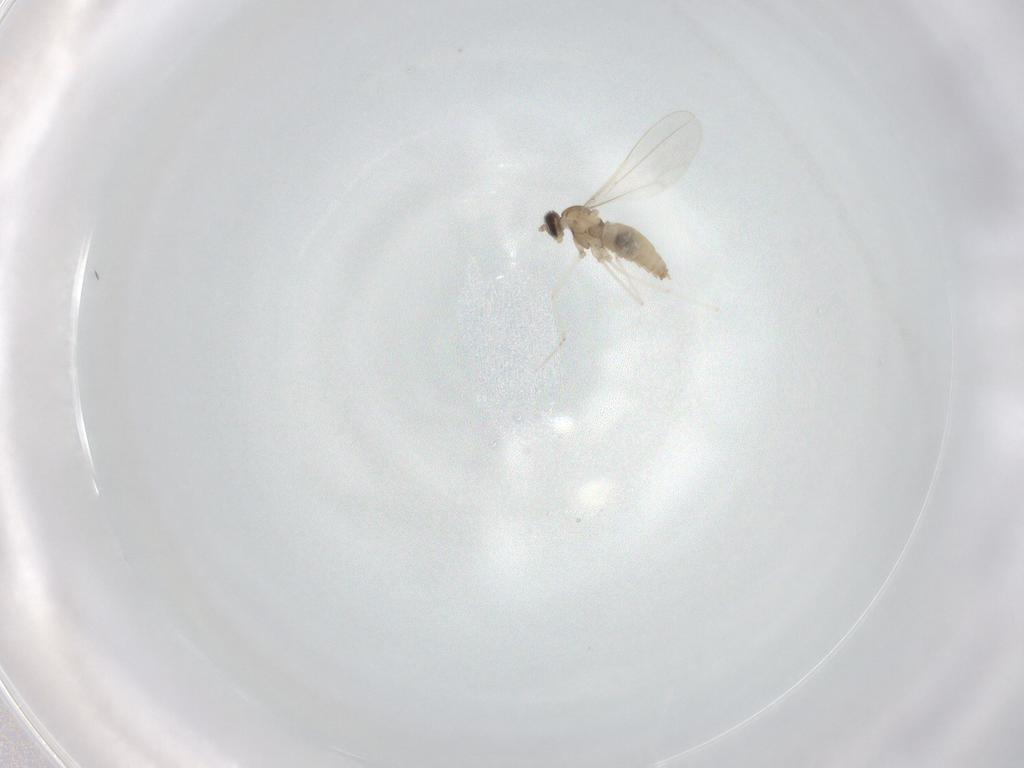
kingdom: Animalia
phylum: Arthropoda
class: Insecta
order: Diptera
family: Cecidomyiidae
